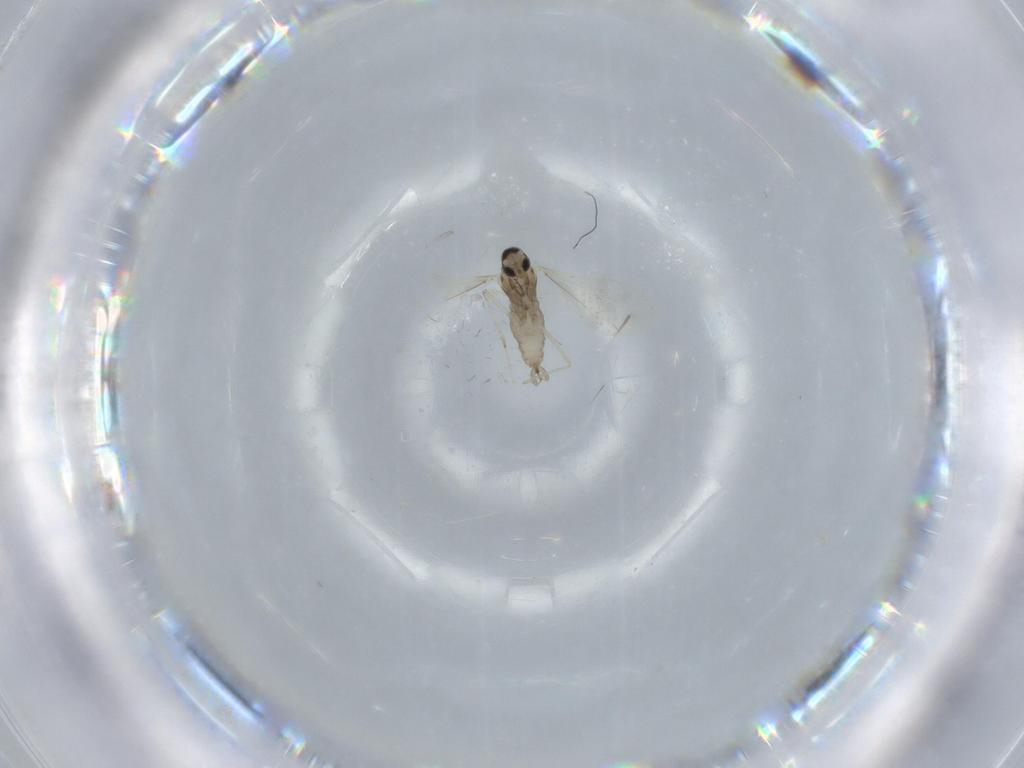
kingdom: Animalia
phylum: Arthropoda
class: Insecta
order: Diptera
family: Cecidomyiidae
